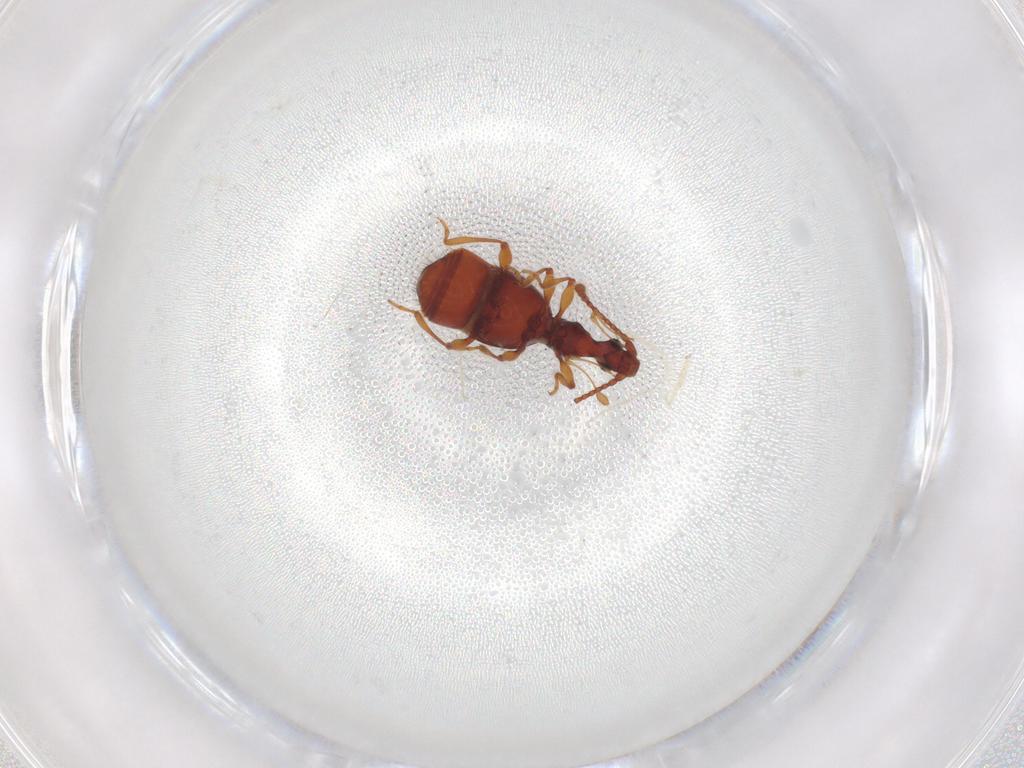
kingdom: Animalia
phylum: Arthropoda
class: Insecta
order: Coleoptera
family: Staphylinidae
